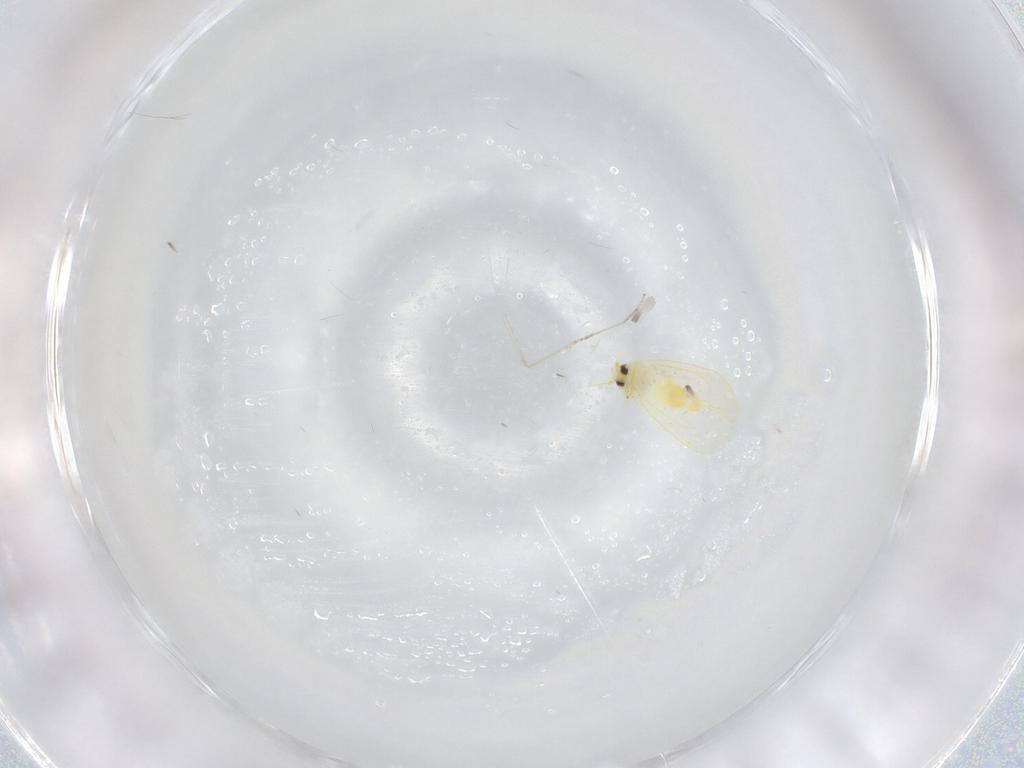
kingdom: Animalia
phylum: Arthropoda
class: Insecta
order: Hemiptera
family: Aleyrodidae
